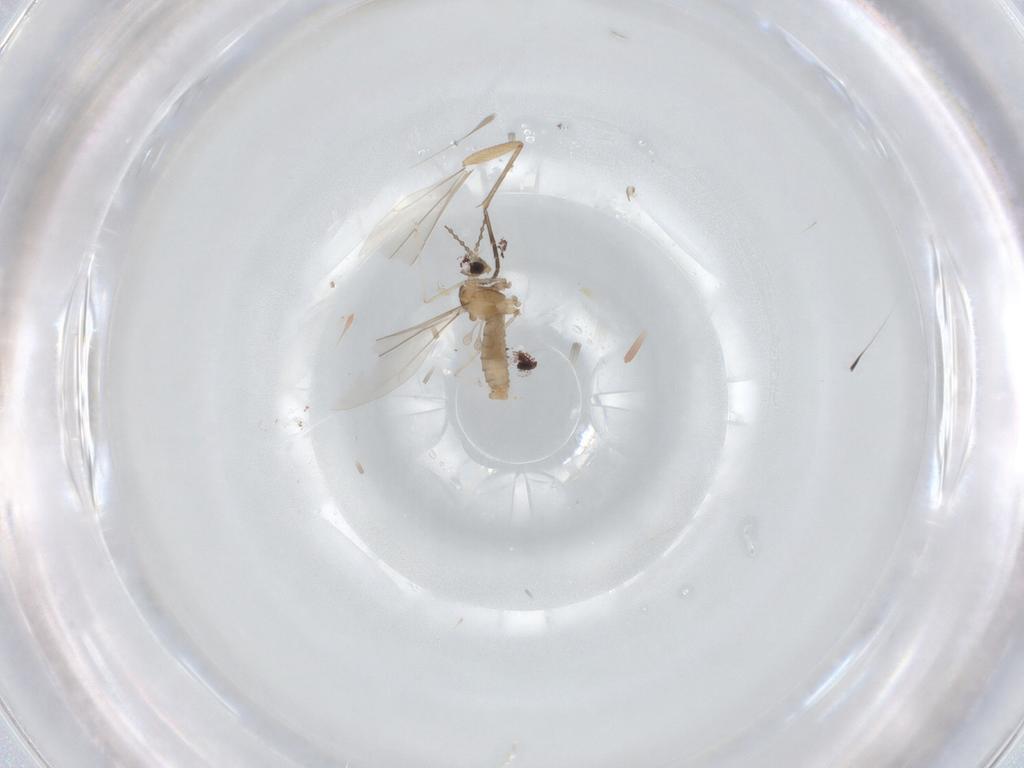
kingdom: Animalia
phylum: Arthropoda
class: Insecta
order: Diptera
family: Cecidomyiidae
